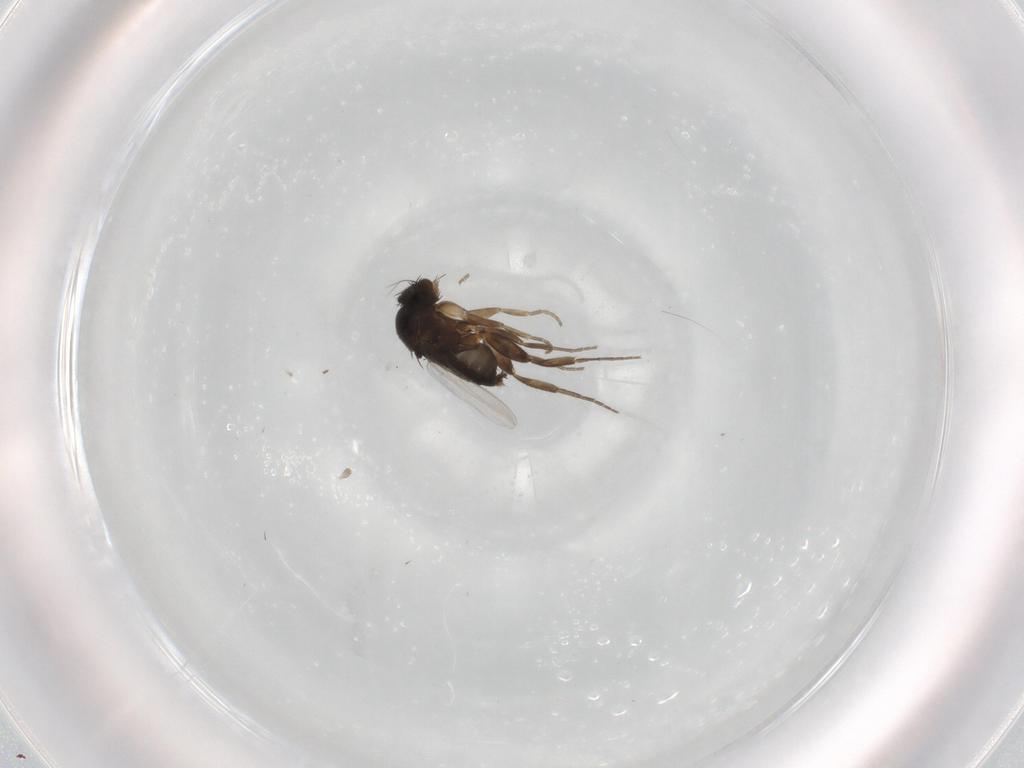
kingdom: Animalia
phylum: Arthropoda
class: Insecta
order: Diptera
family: Phoridae
